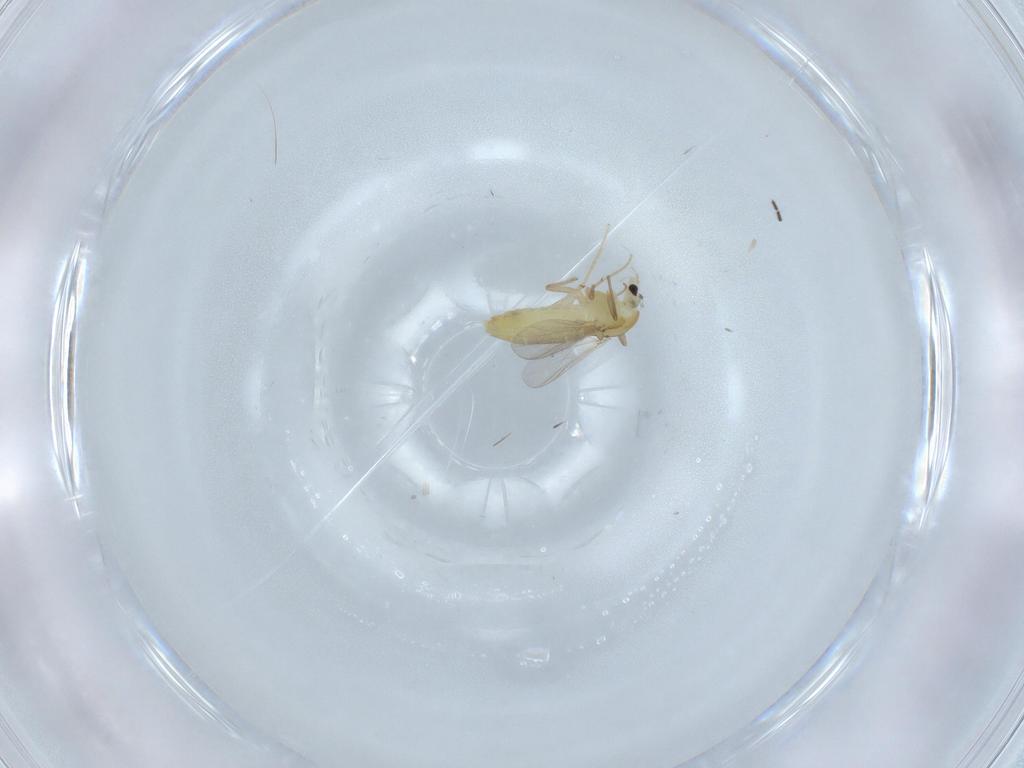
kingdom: Animalia
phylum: Arthropoda
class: Insecta
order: Diptera
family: Chironomidae
